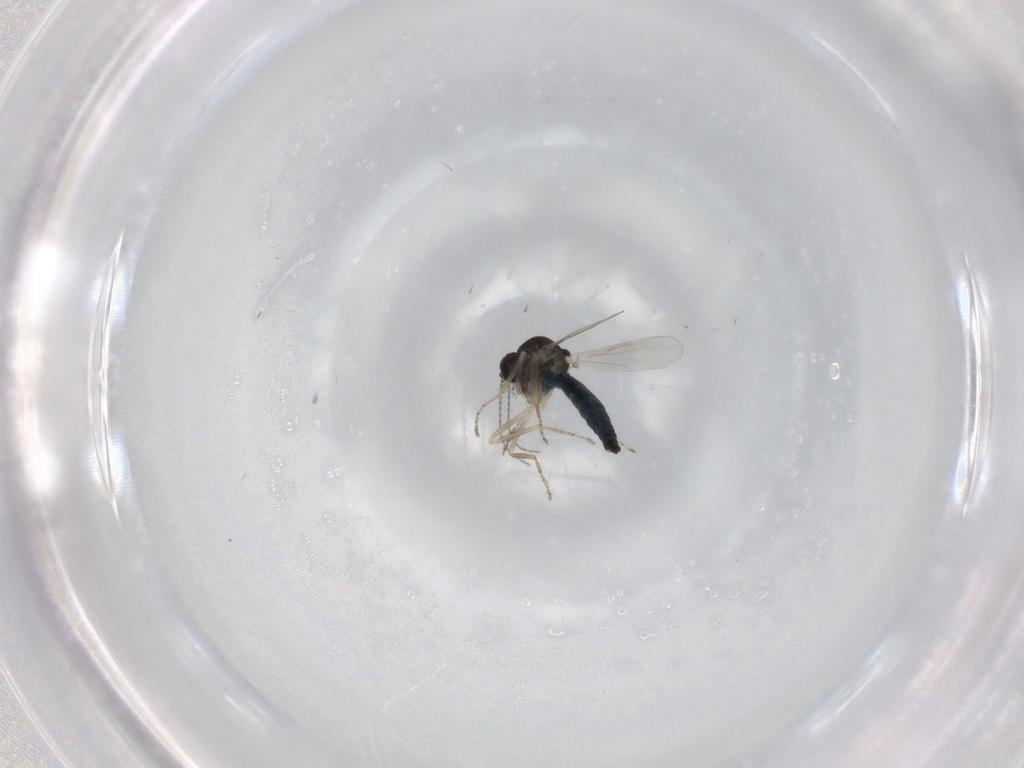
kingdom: Animalia
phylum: Arthropoda
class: Insecta
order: Diptera
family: Ceratopogonidae
